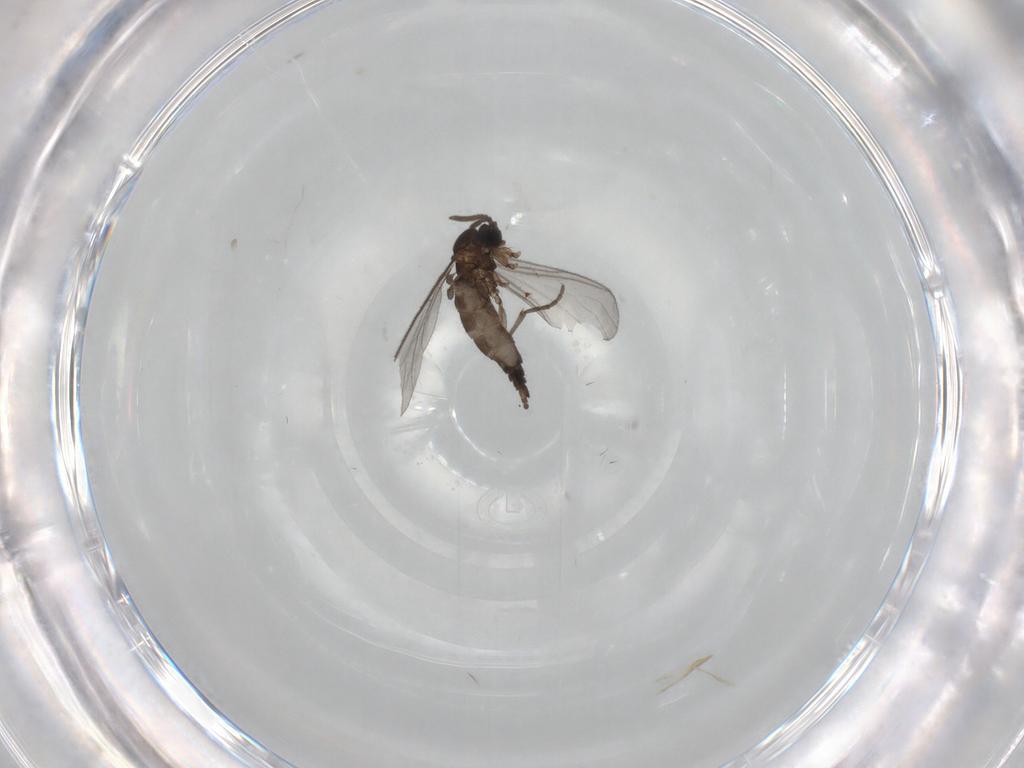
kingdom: Animalia
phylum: Arthropoda
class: Insecta
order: Diptera
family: Sciaridae
